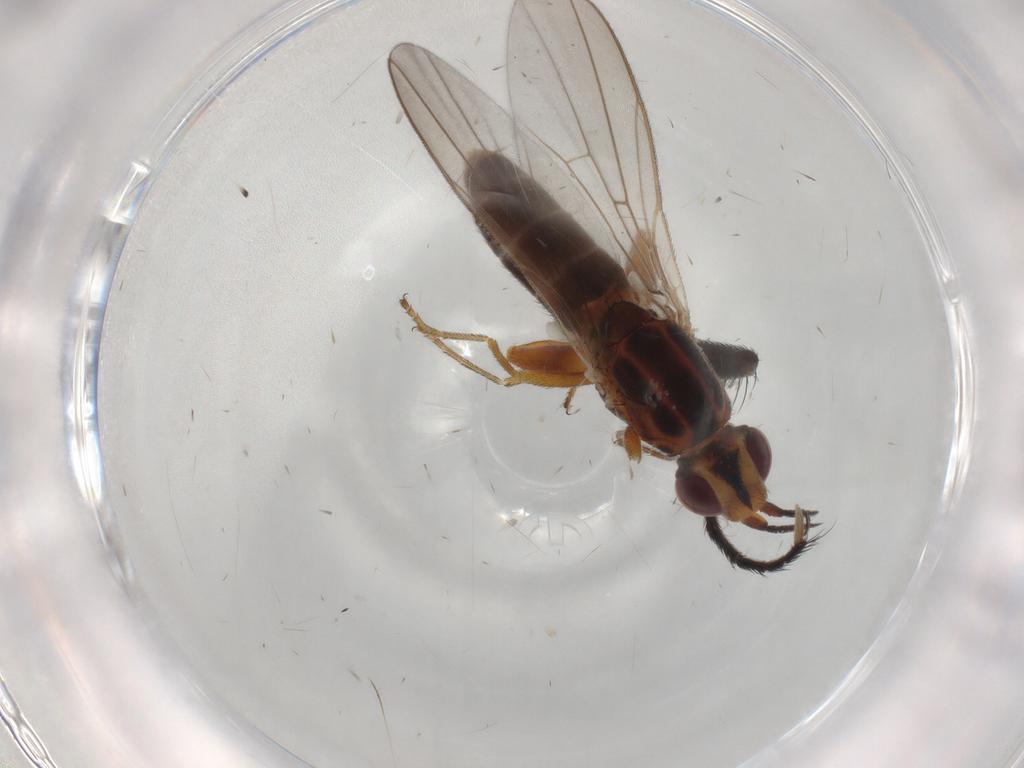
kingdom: Animalia
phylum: Arthropoda
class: Insecta
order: Diptera
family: Chloropidae
